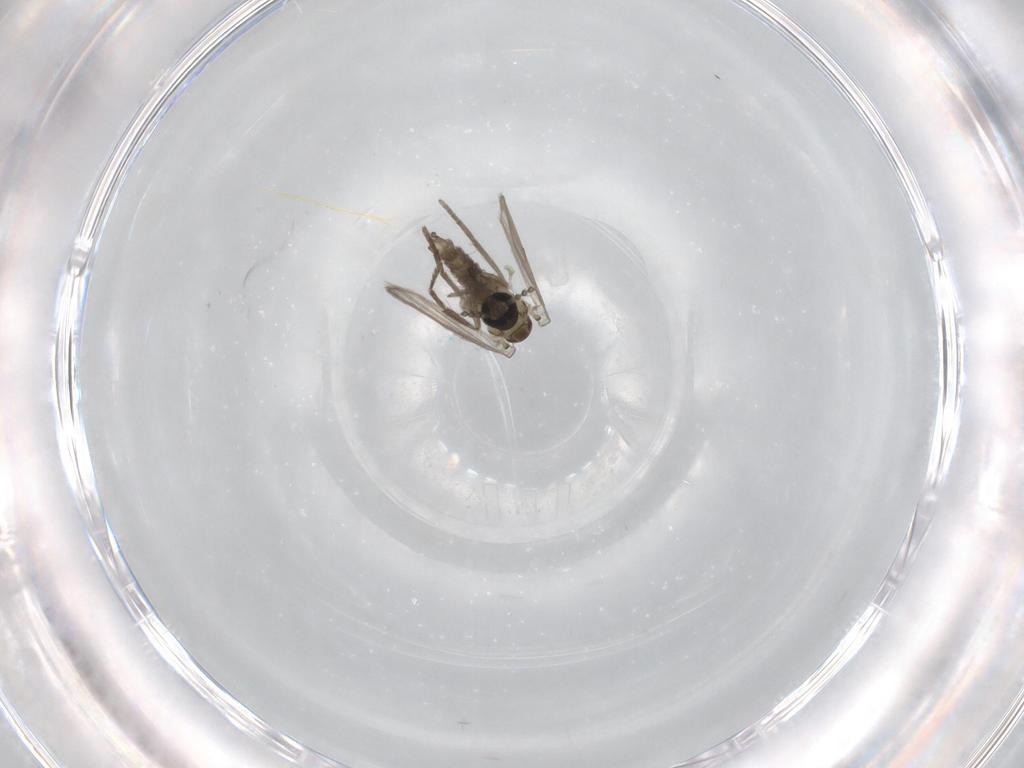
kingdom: Animalia
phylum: Arthropoda
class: Insecta
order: Diptera
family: Psychodidae
